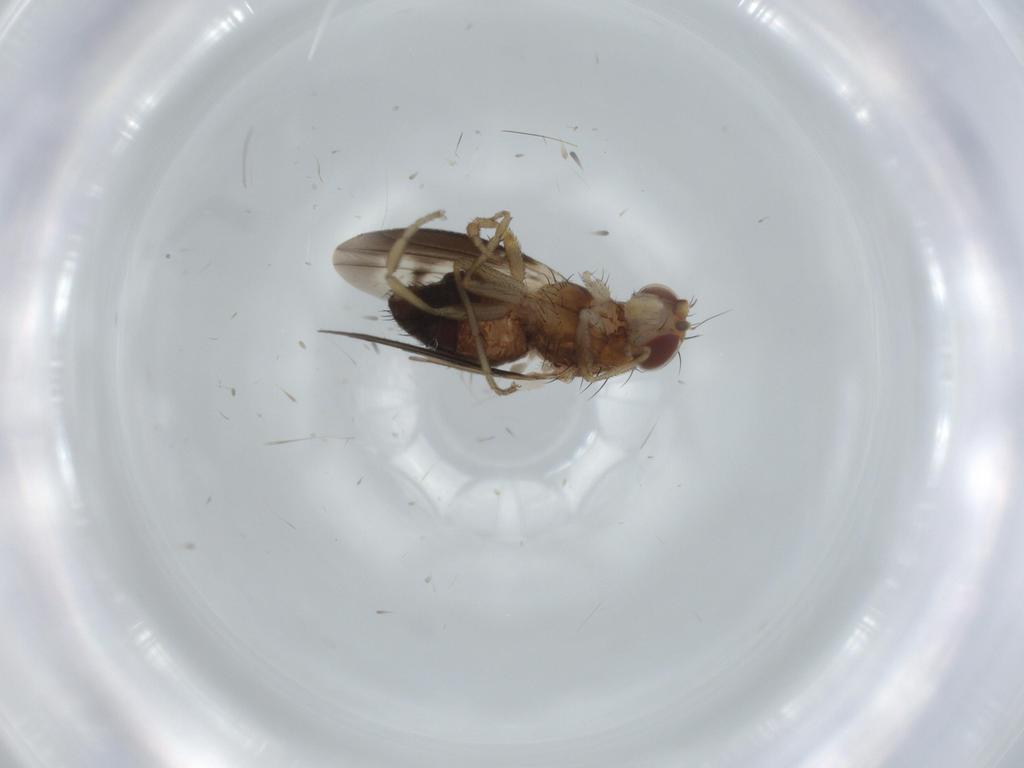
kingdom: Animalia
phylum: Arthropoda
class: Insecta
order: Diptera
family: Heleomyzidae
